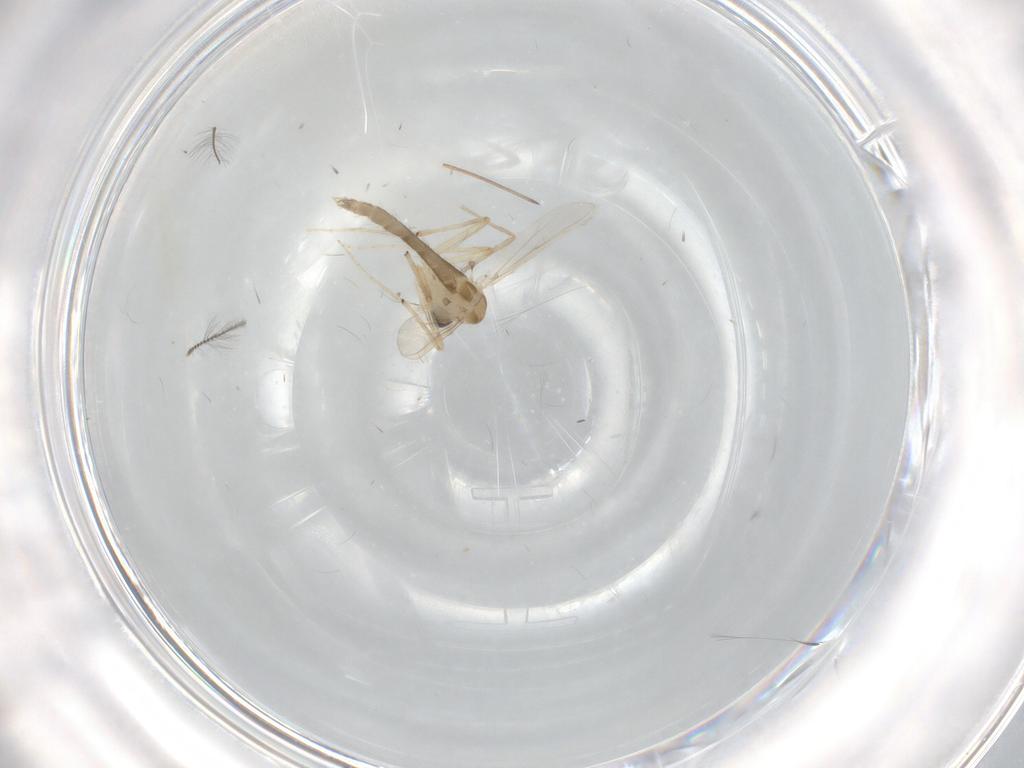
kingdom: Animalia
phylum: Arthropoda
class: Insecta
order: Diptera
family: Chironomidae
